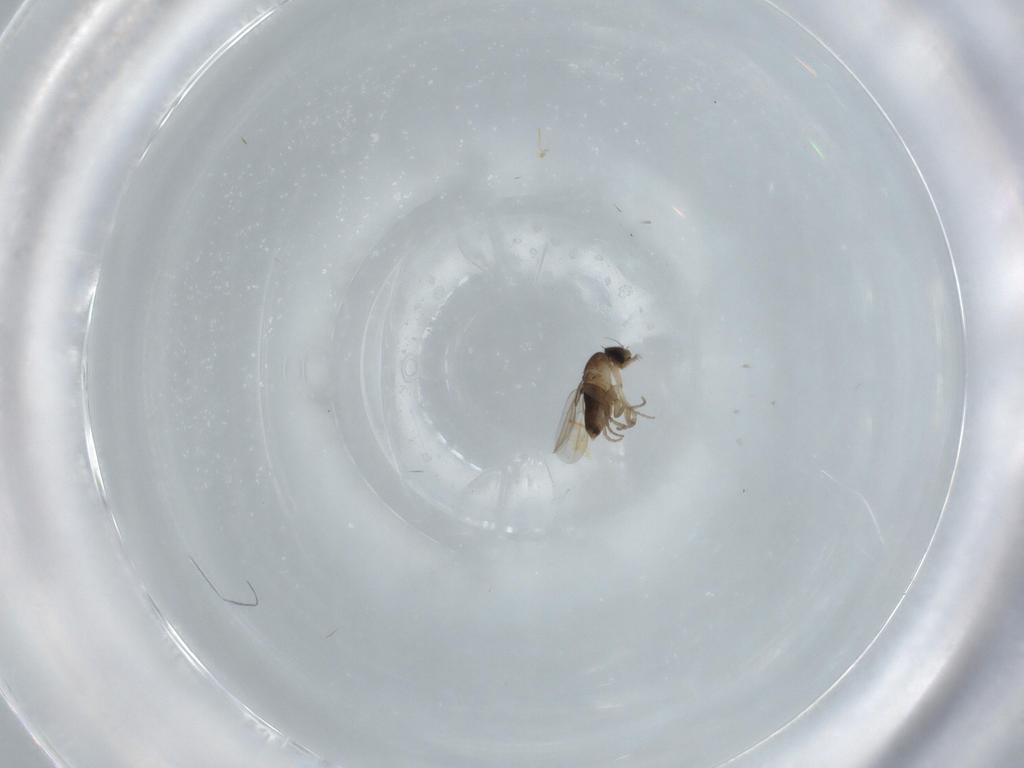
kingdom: Animalia
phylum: Arthropoda
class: Insecta
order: Diptera
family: Phoridae
